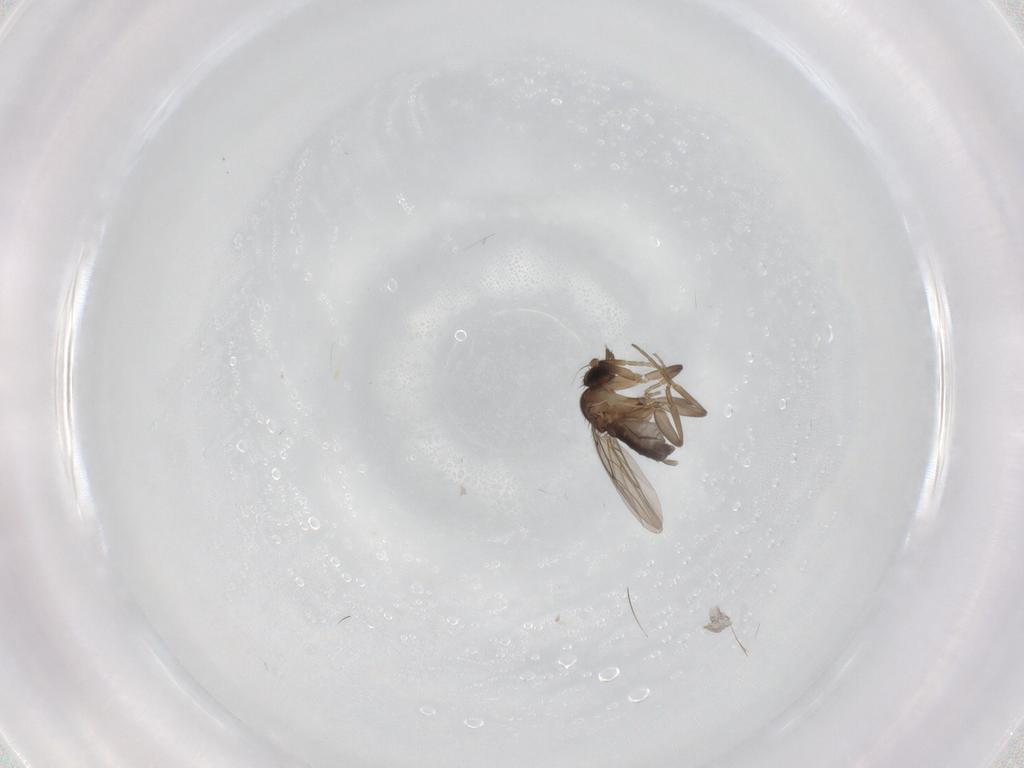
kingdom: Animalia
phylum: Arthropoda
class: Insecta
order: Diptera
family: Phoridae
